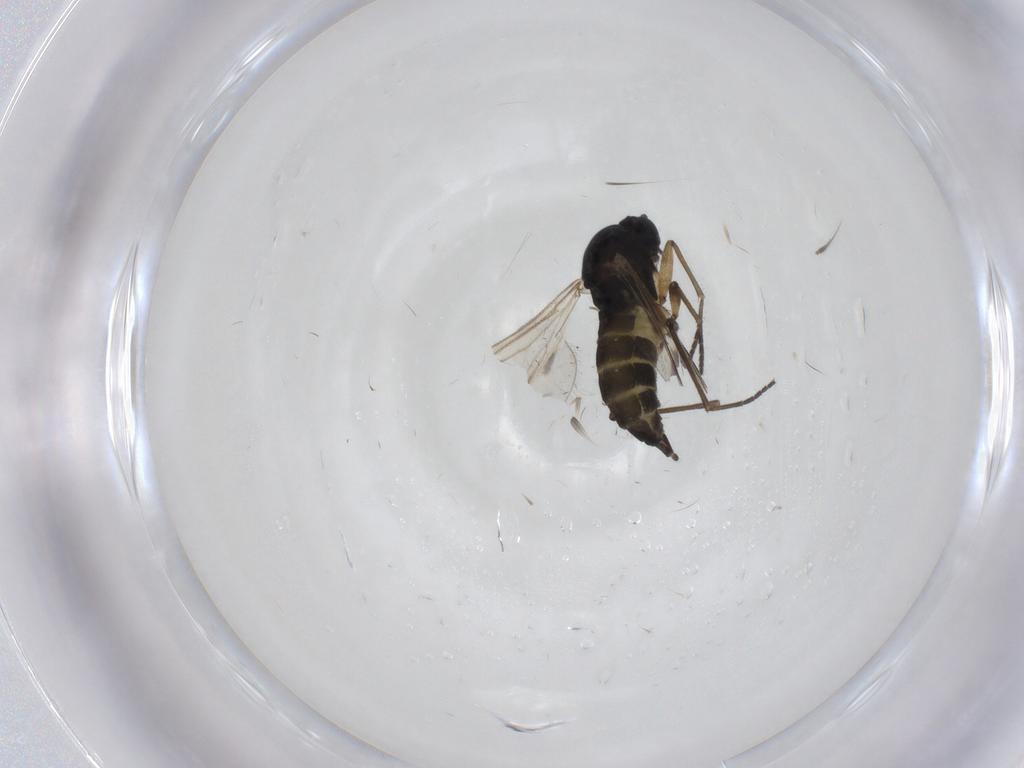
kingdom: Animalia
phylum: Arthropoda
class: Insecta
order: Diptera
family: Sciaridae
